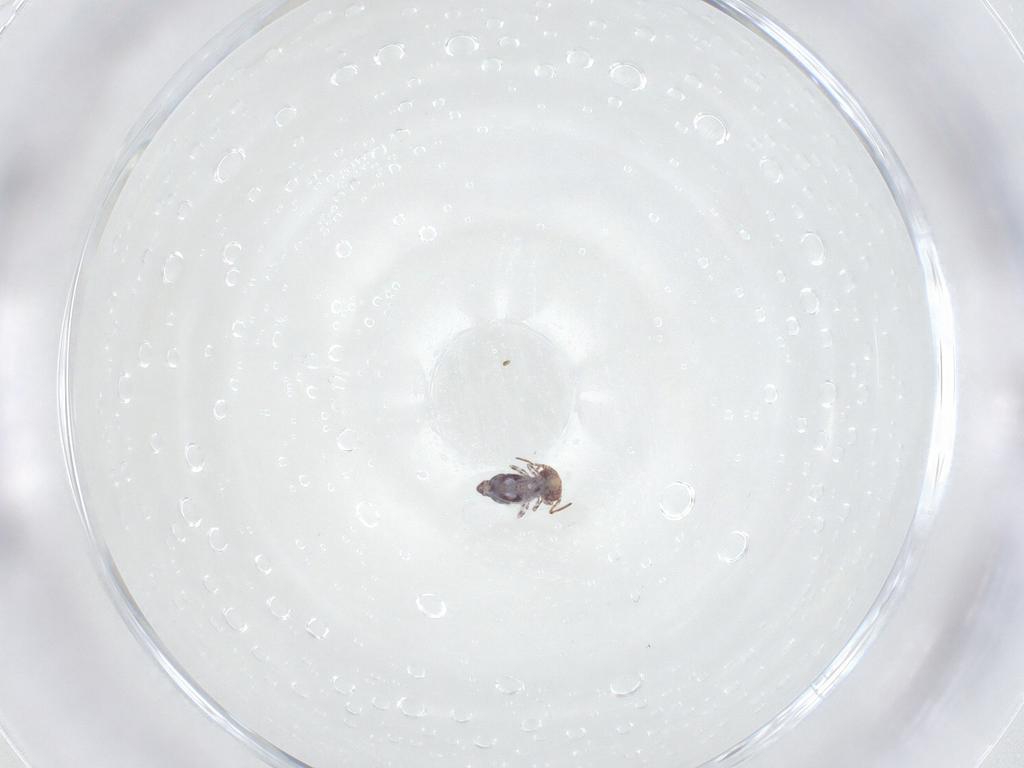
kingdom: Animalia
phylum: Arthropoda
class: Collembola
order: Symphypleona
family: Bourletiellidae
